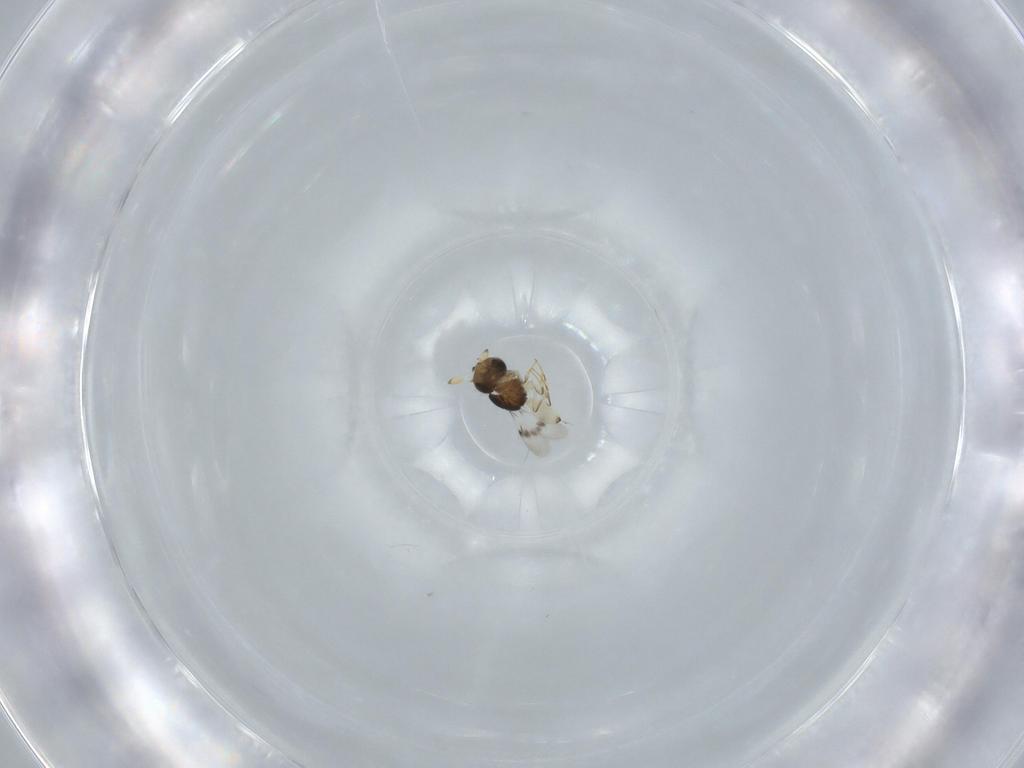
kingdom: Animalia
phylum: Arthropoda
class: Insecta
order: Hymenoptera
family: Scelionidae
